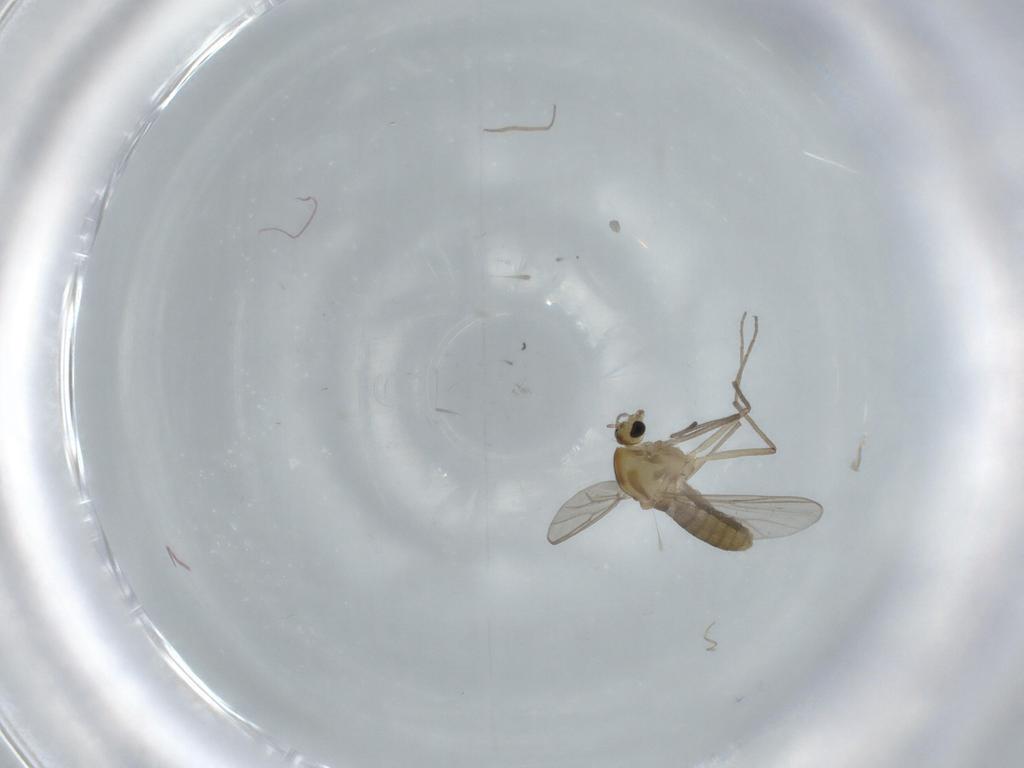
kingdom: Animalia
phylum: Arthropoda
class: Insecta
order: Diptera
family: Chironomidae
